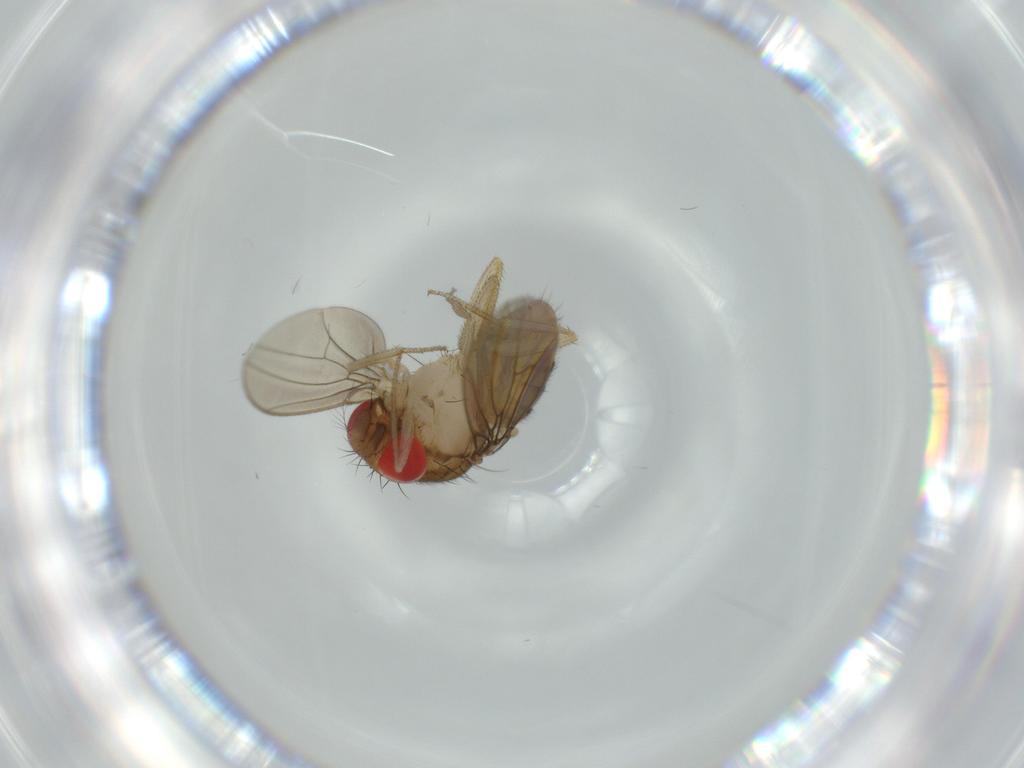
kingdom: Animalia
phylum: Arthropoda
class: Insecta
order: Diptera
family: Drosophilidae
